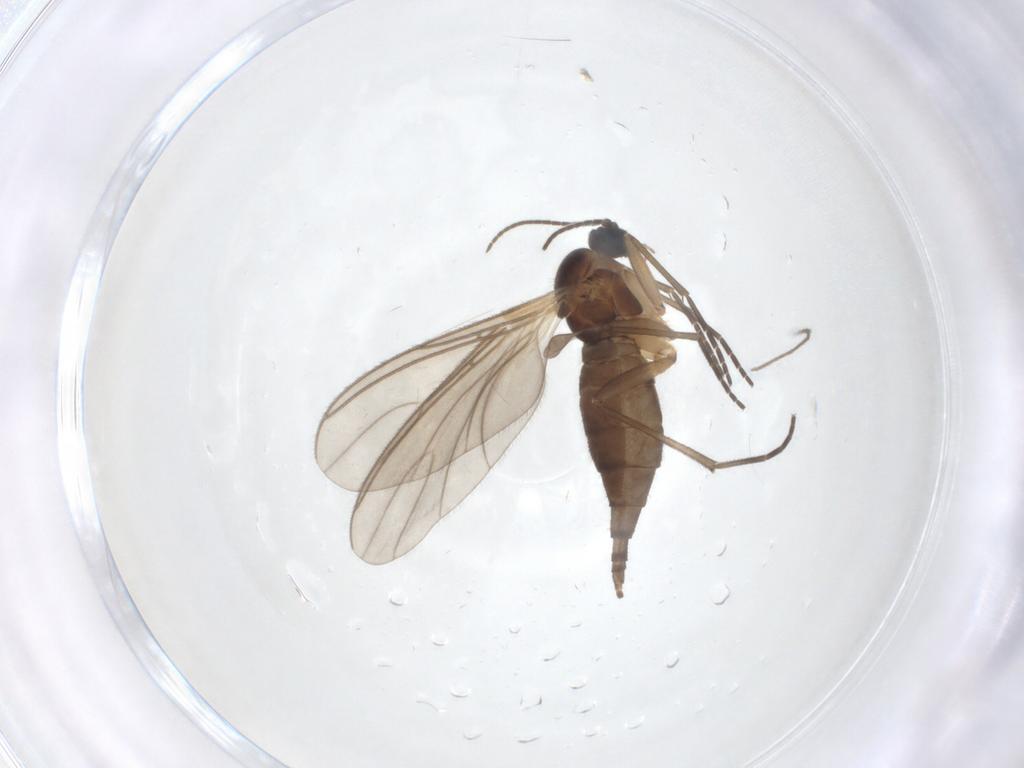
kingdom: Animalia
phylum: Arthropoda
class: Insecta
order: Diptera
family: Sciaridae
